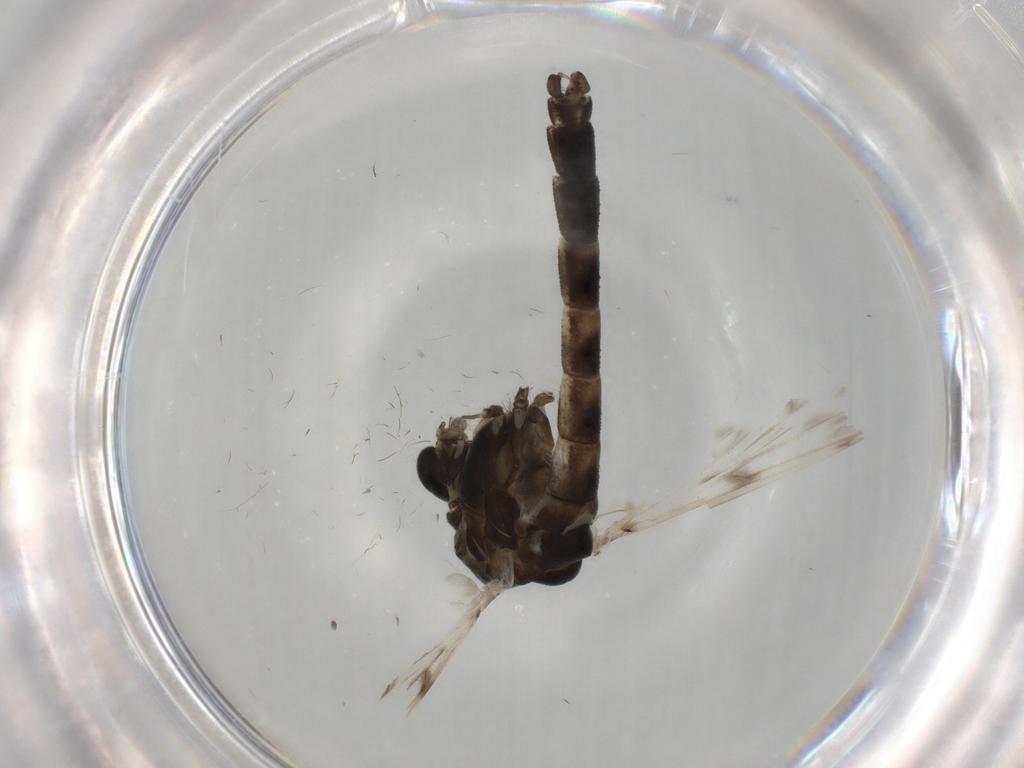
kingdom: Animalia
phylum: Arthropoda
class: Insecta
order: Diptera
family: Chironomidae
